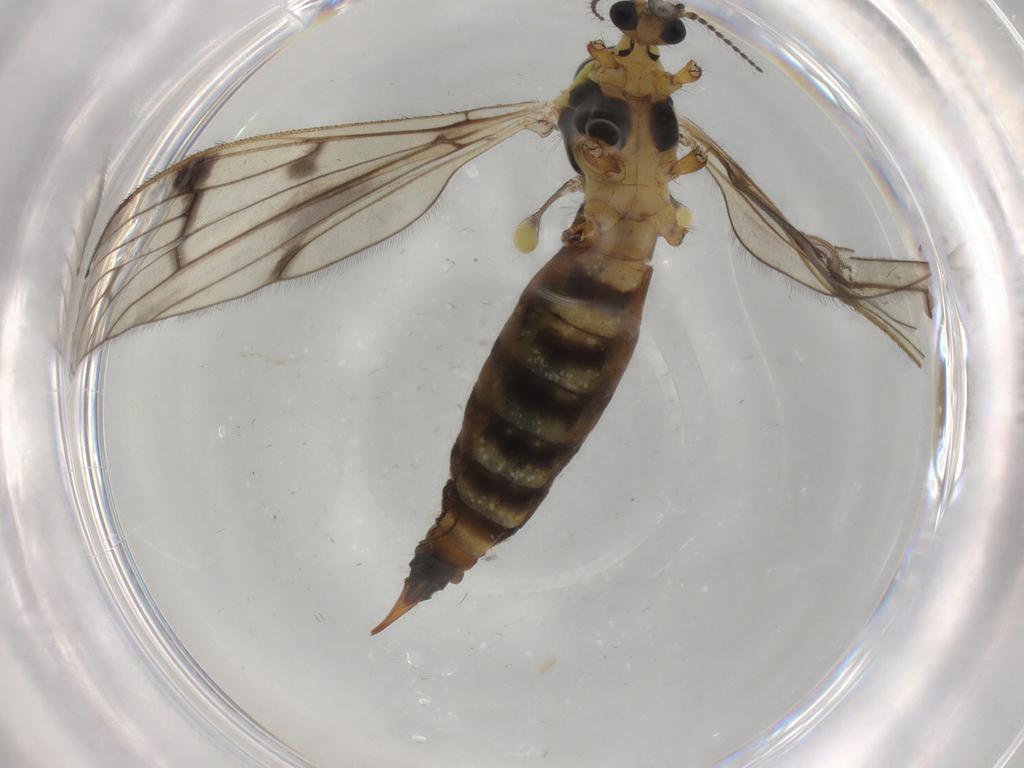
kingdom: Animalia
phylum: Arthropoda
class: Insecta
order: Diptera
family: Limoniidae
